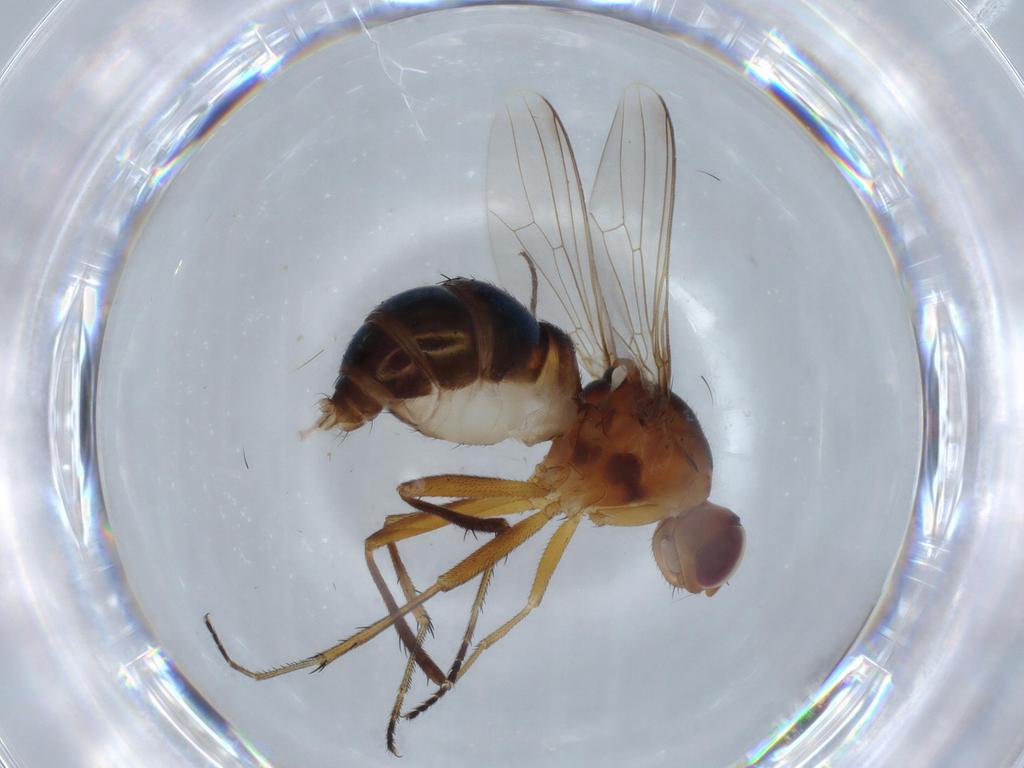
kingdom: Animalia
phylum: Arthropoda
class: Insecta
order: Diptera
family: Sepsidae
